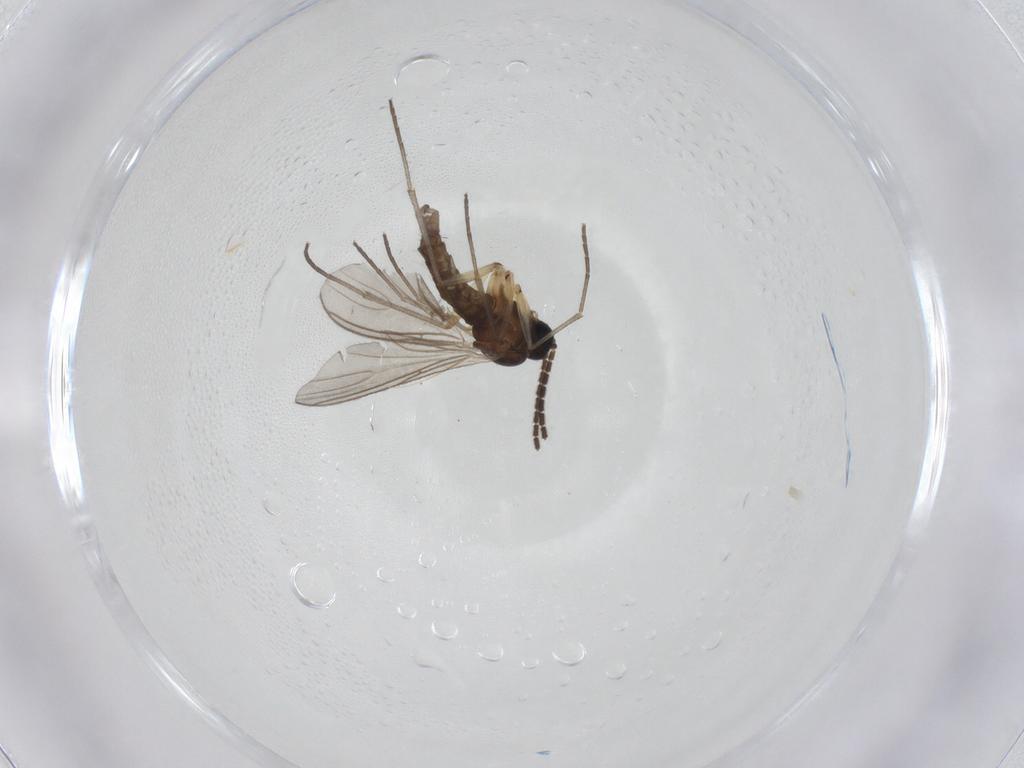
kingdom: Animalia
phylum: Arthropoda
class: Insecta
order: Diptera
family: Sciaridae
